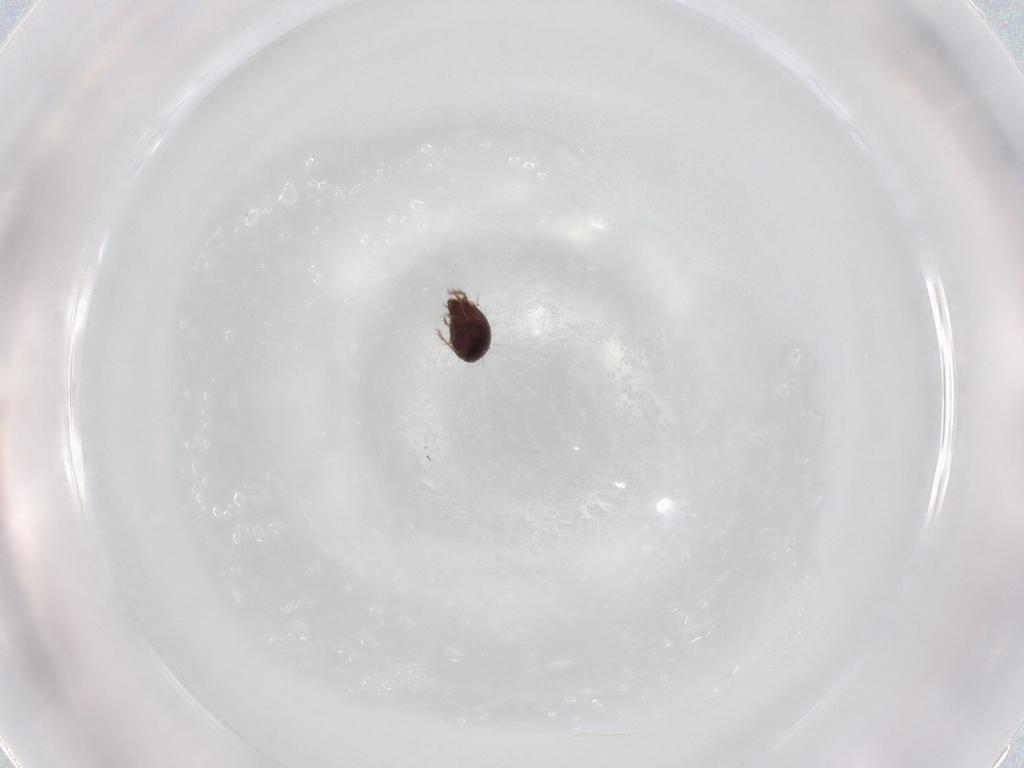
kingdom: Animalia
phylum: Arthropoda
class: Arachnida
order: Sarcoptiformes
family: Humerobatidae
